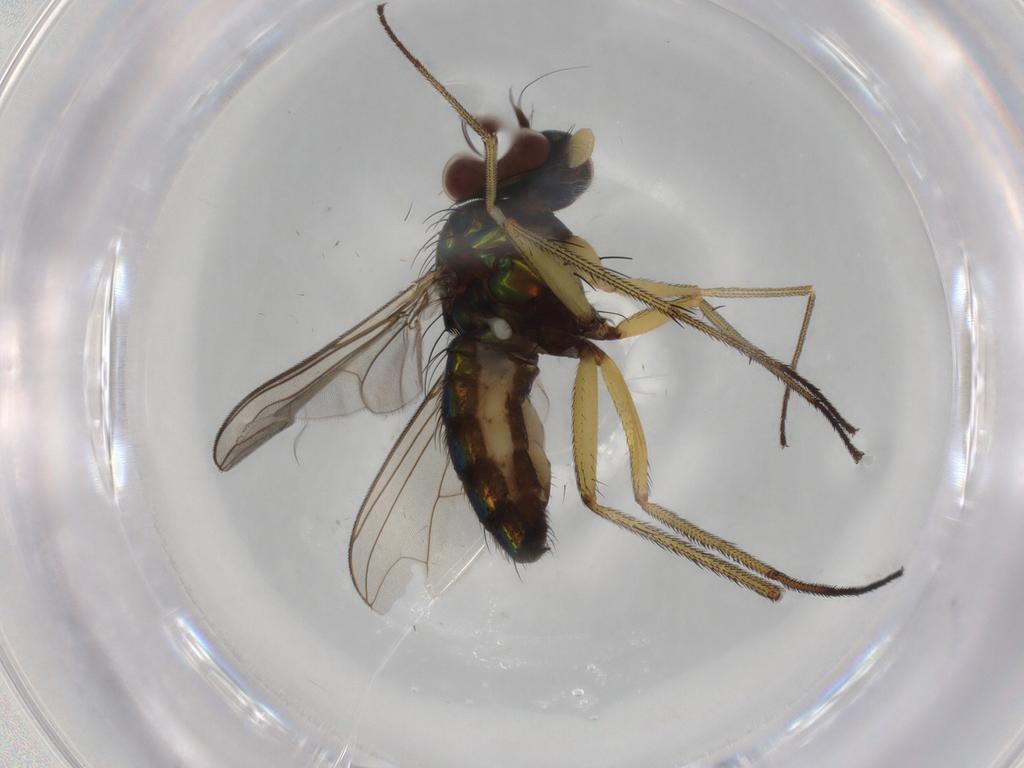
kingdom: Animalia
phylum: Arthropoda
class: Insecta
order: Diptera
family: Dolichopodidae
